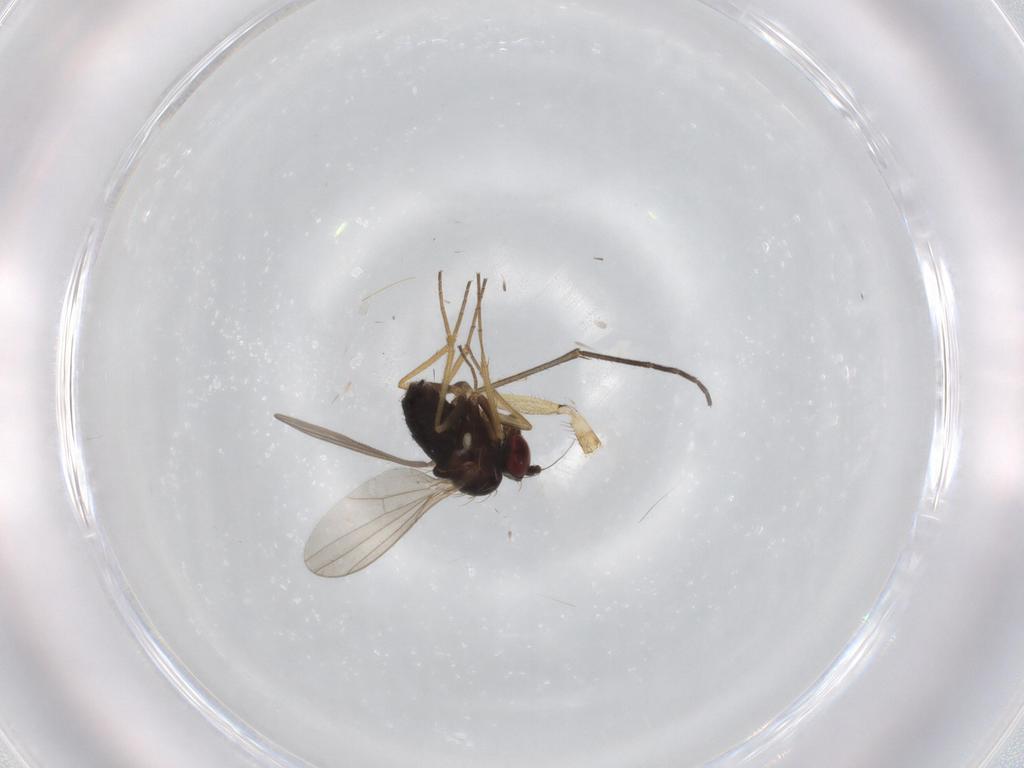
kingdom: Animalia
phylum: Arthropoda
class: Insecta
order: Diptera
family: Sciaridae
